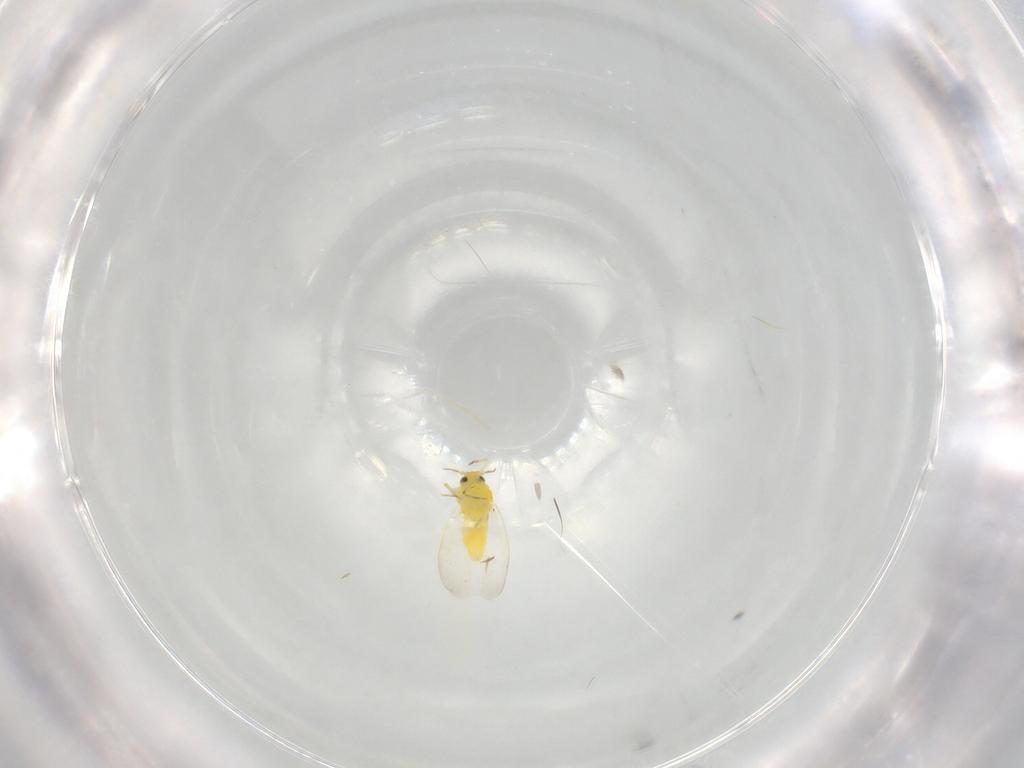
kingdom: Animalia
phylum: Arthropoda
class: Insecta
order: Hemiptera
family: Aleyrodidae
